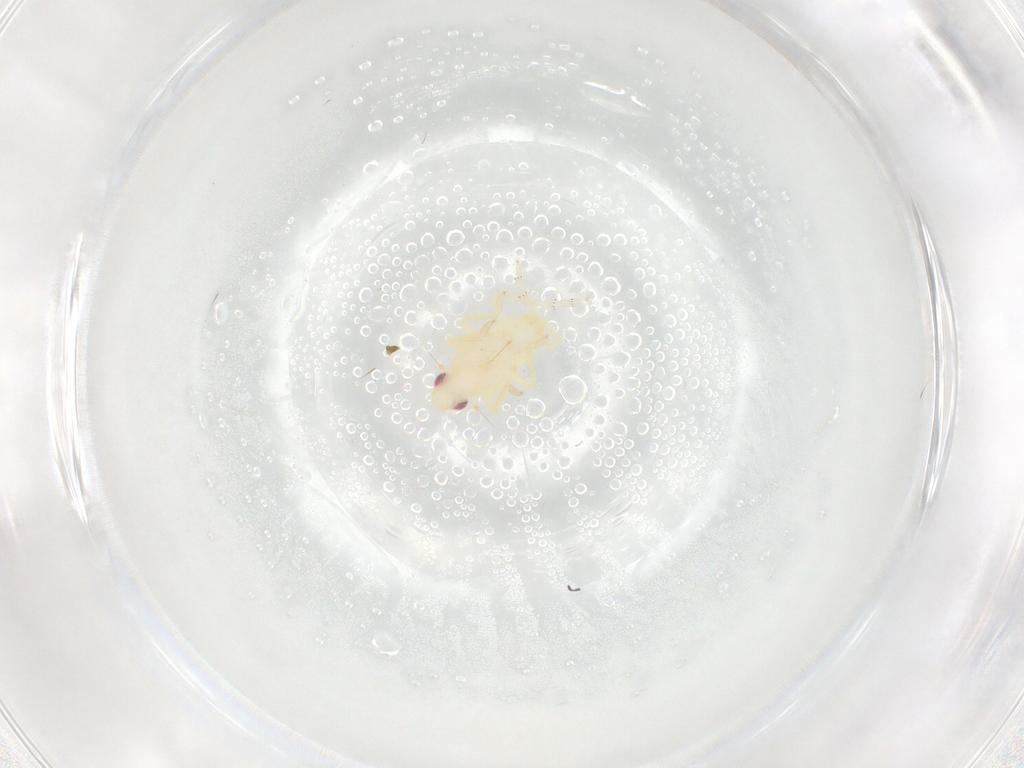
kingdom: Animalia
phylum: Arthropoda
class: Insecta
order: Hemiptera
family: Tropiduchidae
